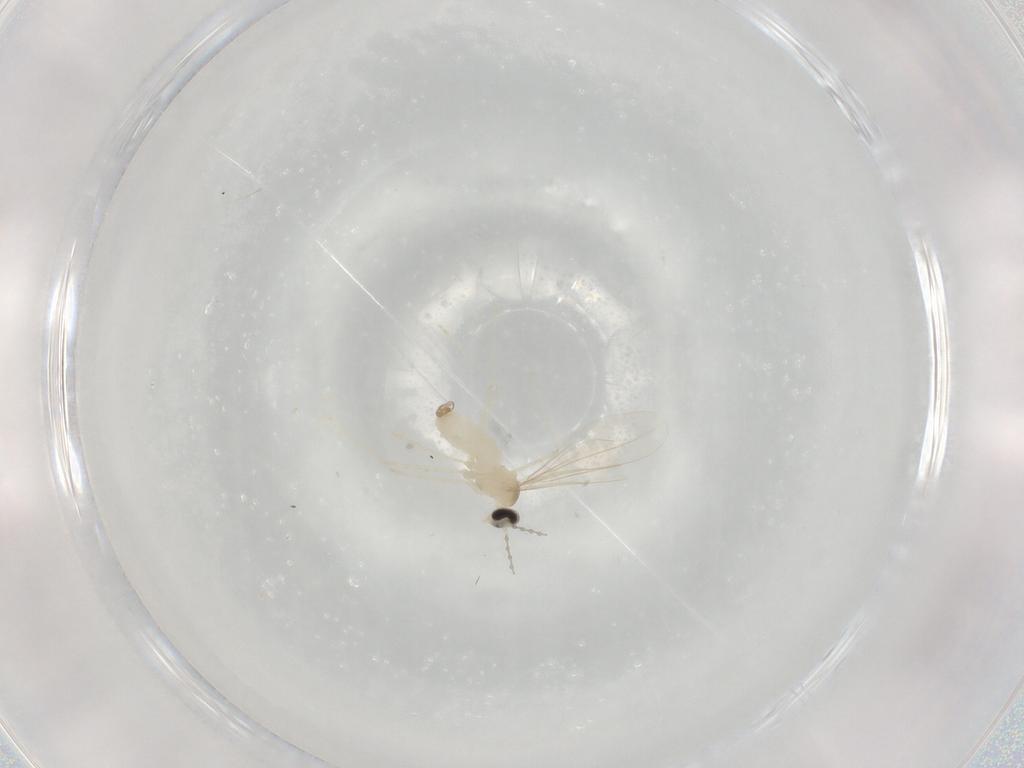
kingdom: Animalia
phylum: Arthropoda
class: Insecta
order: Diptera
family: Cecidomyiidae
